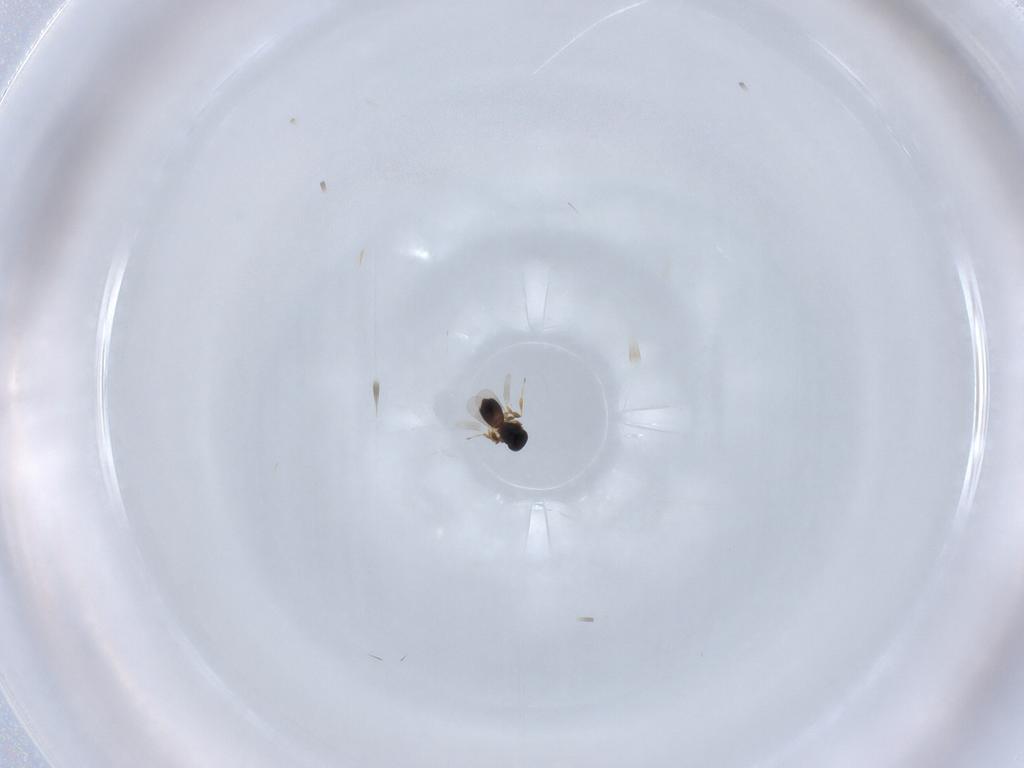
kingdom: Animalia
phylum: Arthropoda
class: Insecta
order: Hymenoptera
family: Platygastridae
